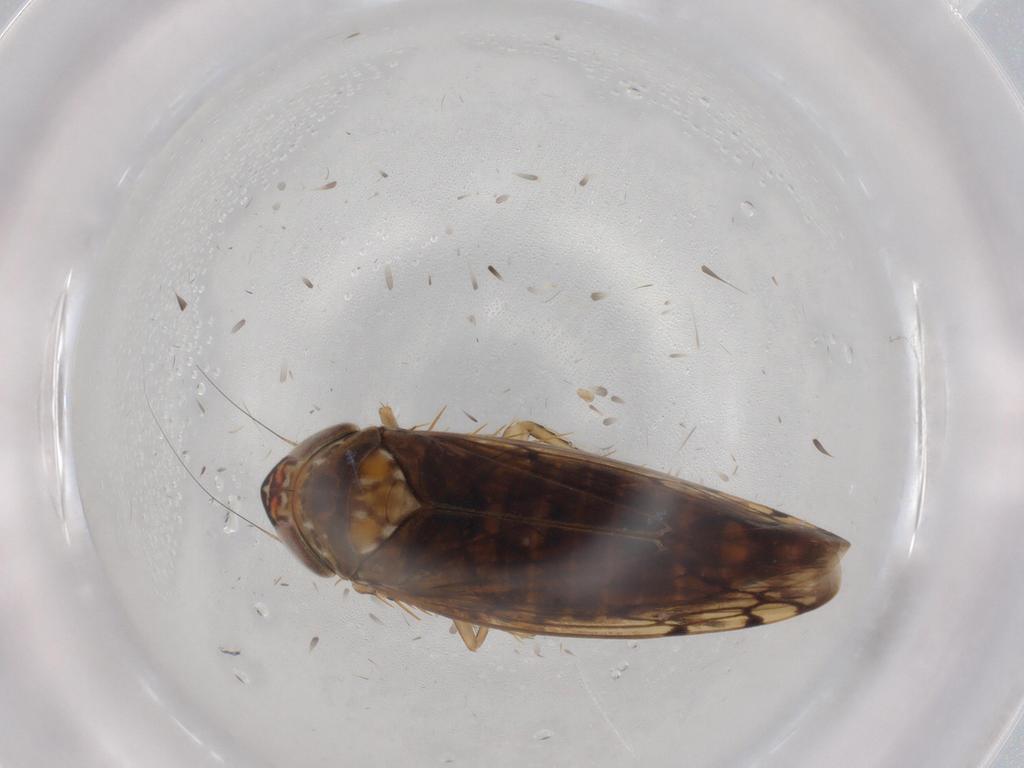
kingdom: Animalia
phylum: Arthropoda
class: Insecta
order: Hemiptera
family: Cicadellidae
